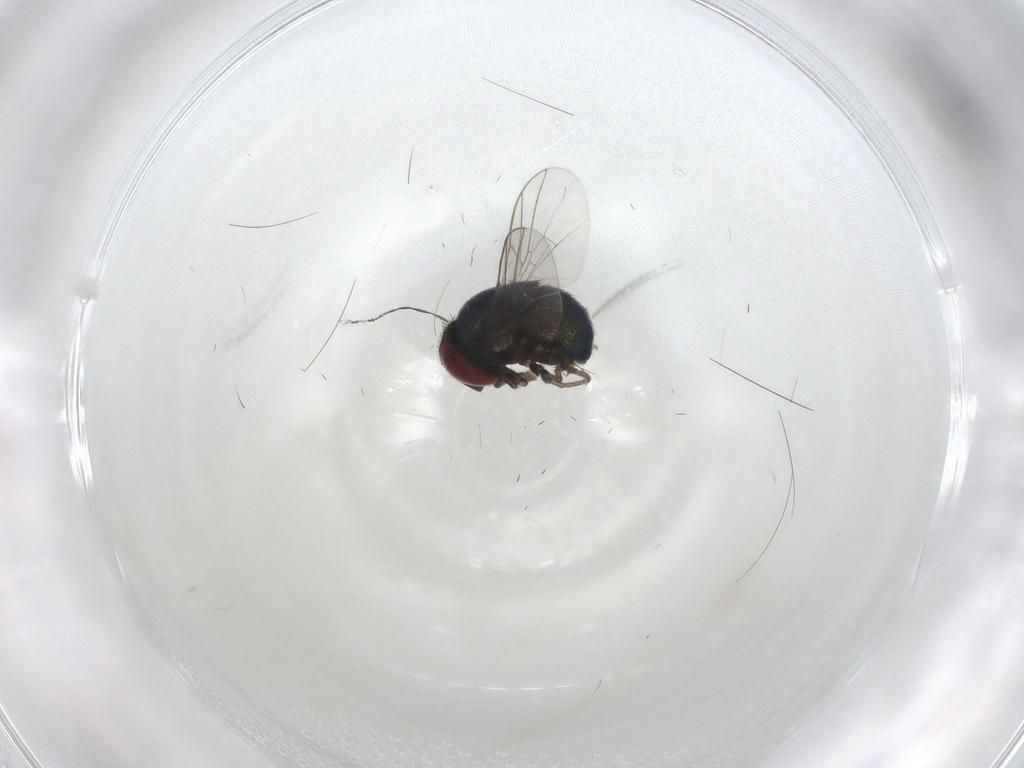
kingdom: Animalia
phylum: Arthropoda
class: Insecta
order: Diptera
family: Cryptochetidae
